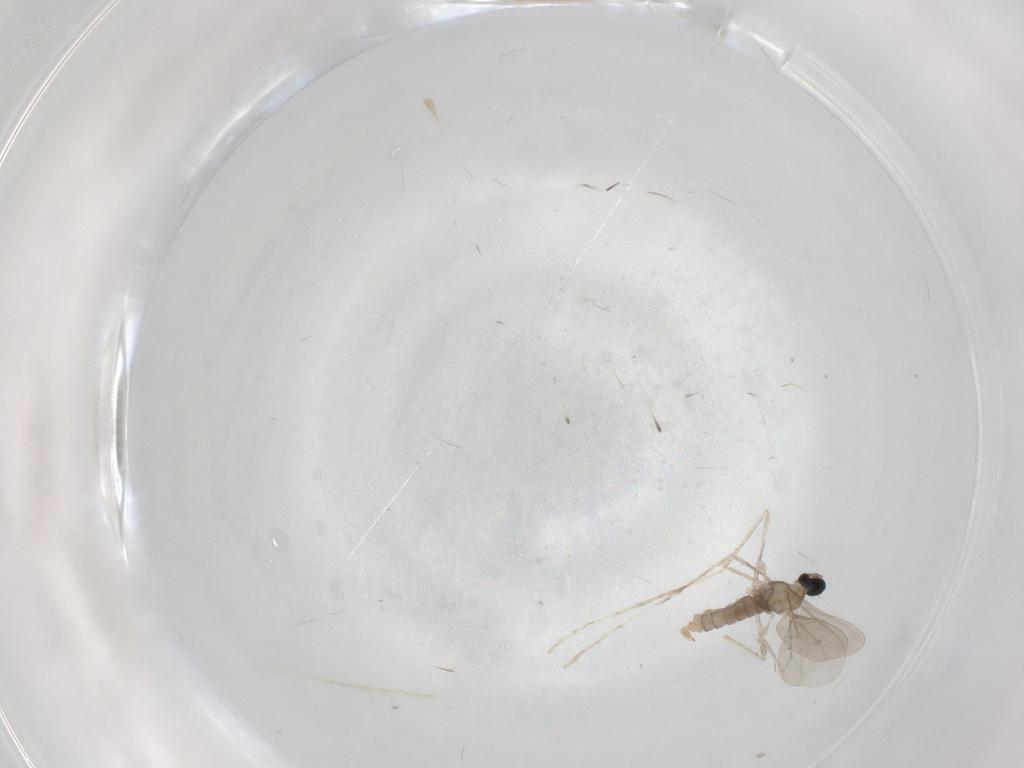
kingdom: Animalia
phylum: Arthropoda
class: Insecta
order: Diptera
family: Cecidomyiidae
